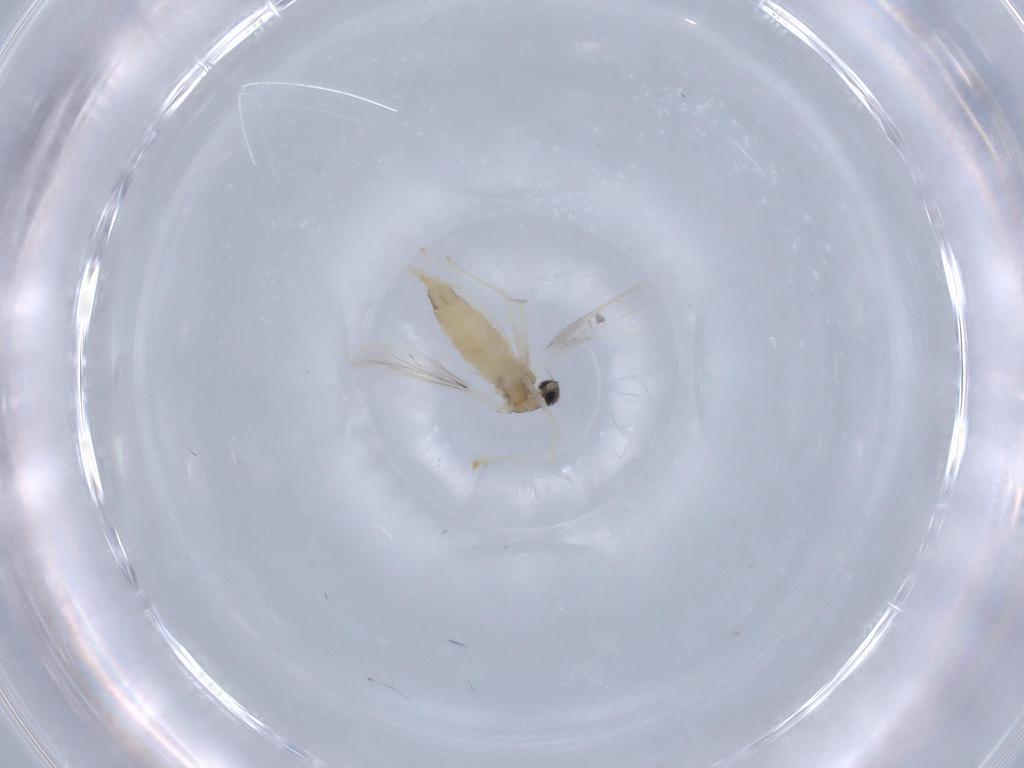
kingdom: Animalia
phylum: Arthropoda
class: Insecta
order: Diptera
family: Cecidomyiidae
